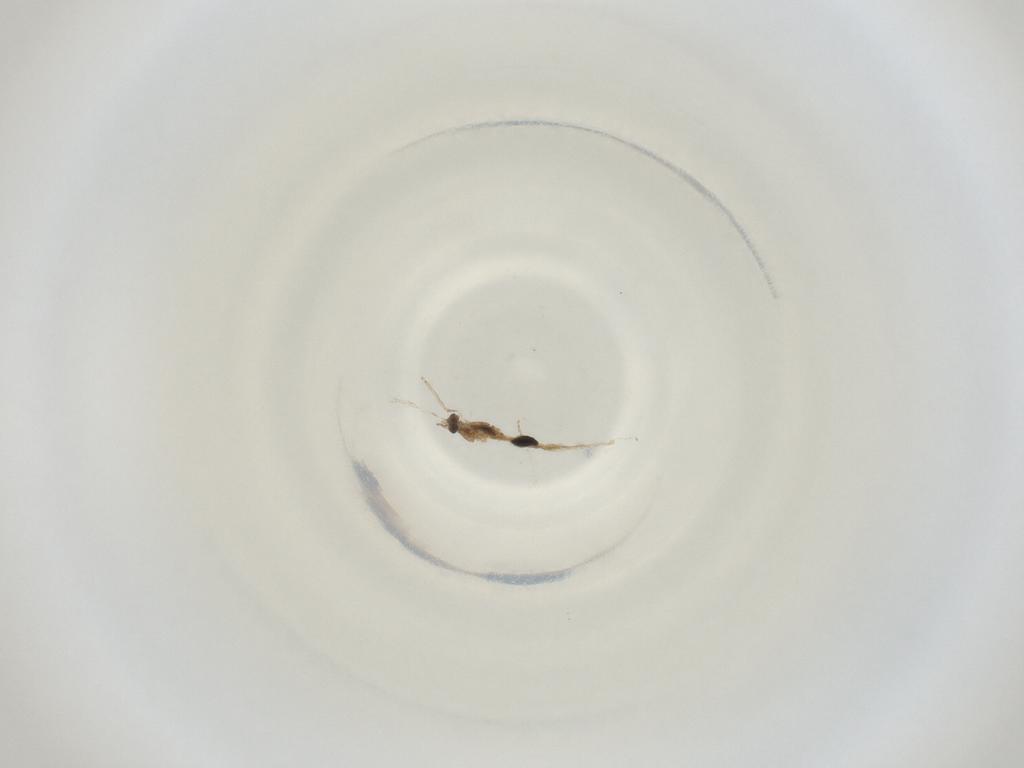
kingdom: Animalia
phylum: Arthropoda
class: Insecta
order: Diptera
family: Cecidomyiidae
